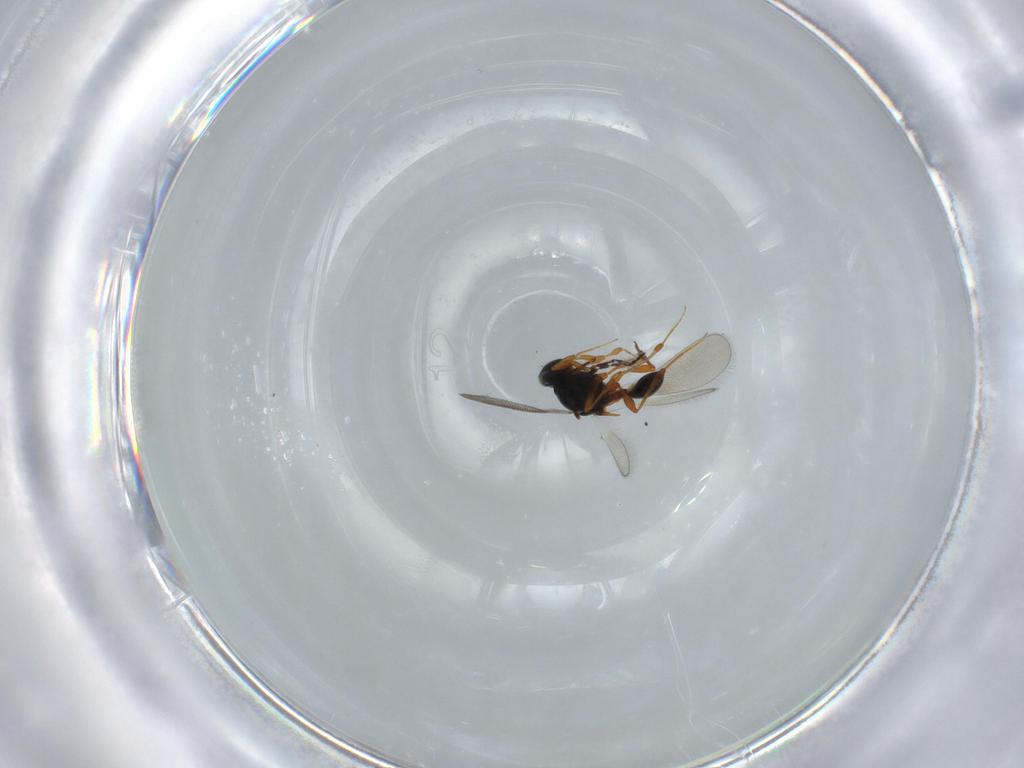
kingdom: Animalia
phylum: Arthropoda
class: Insecta
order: Hymenoptera
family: Platygastridae
